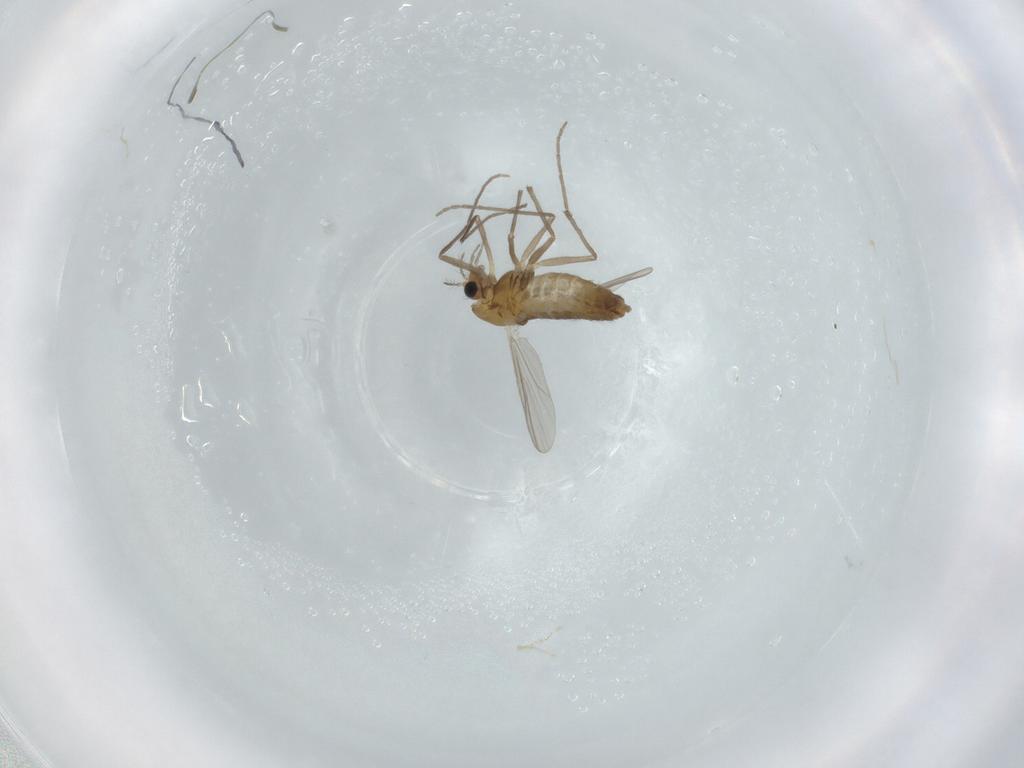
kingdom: Animalia
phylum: Arthropoda
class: Insecta
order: Diptera
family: Chironomidae
